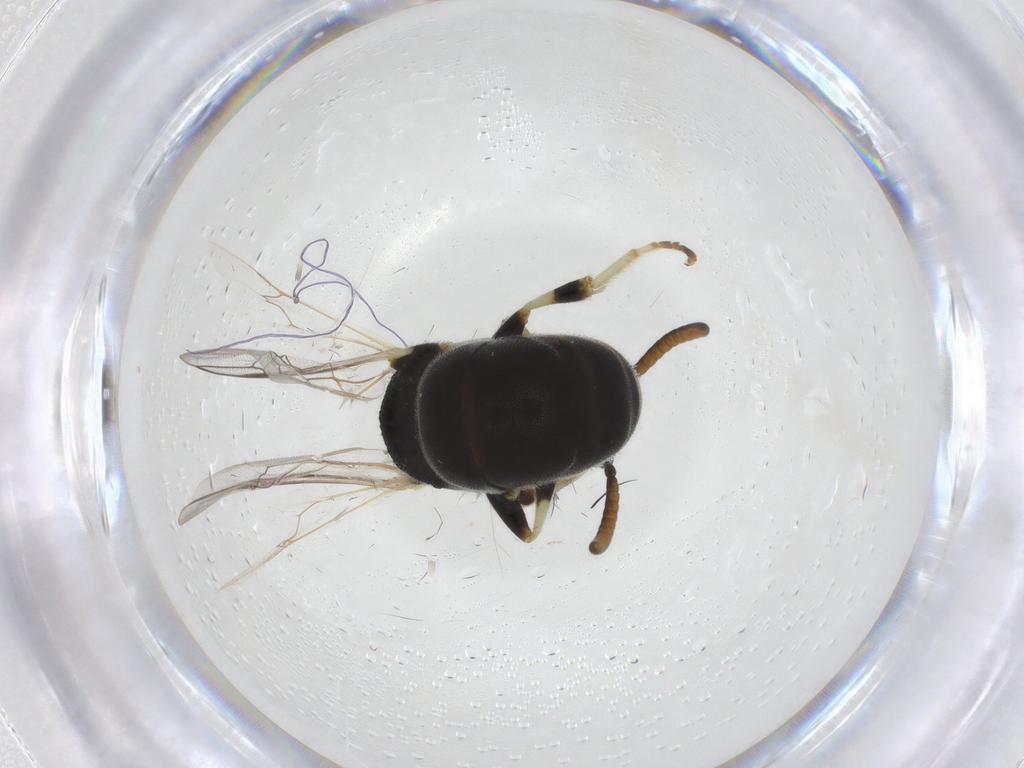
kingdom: Animalia
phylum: Arthropoda
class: Insecta
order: Hymenoptera
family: Colletidae
